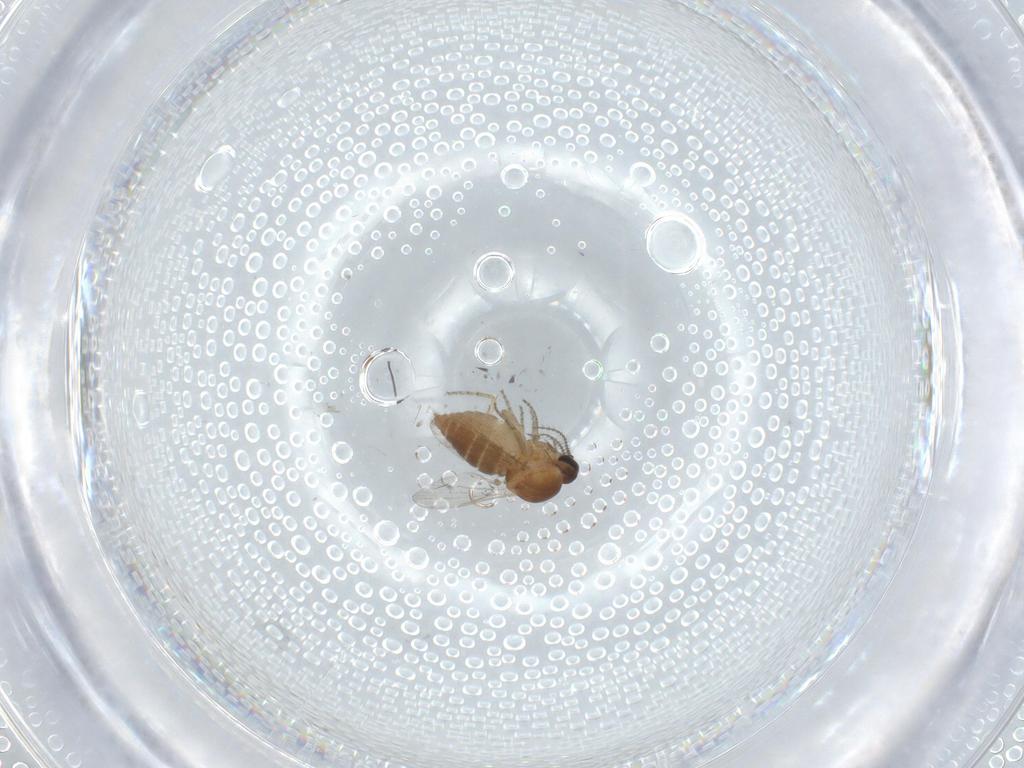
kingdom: Animalia
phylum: Arthropoda
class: Insecta
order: Diptera
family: Ceratopogonidae
